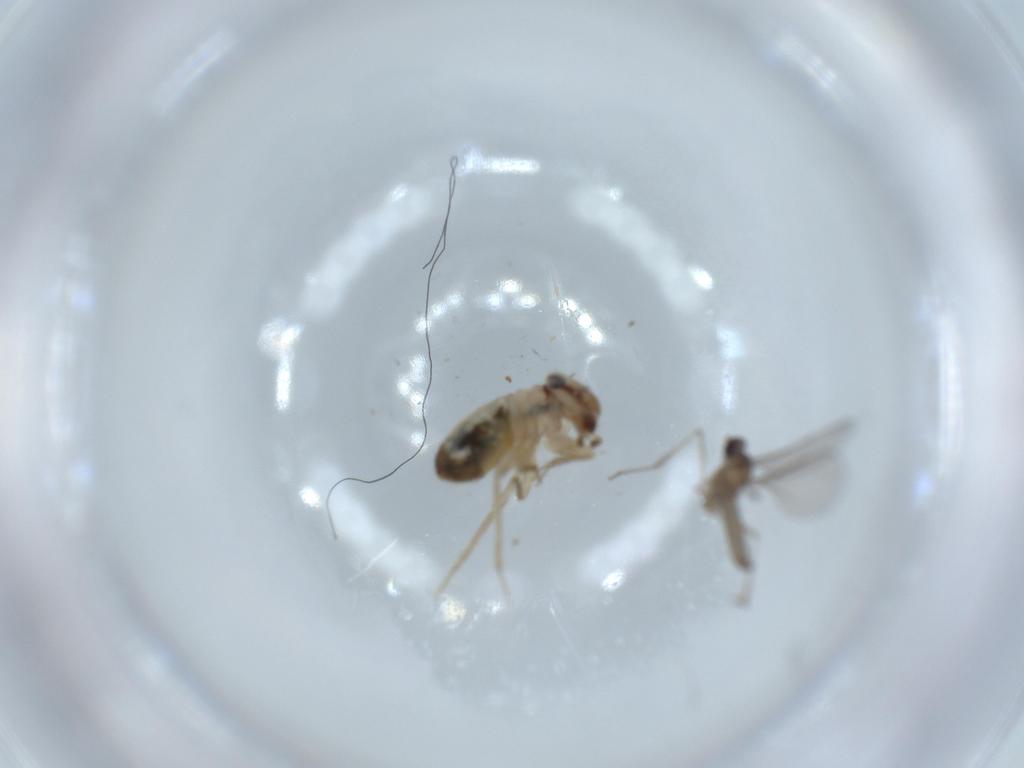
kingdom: Animalia
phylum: Arthropoda
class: Insecta
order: Diptera
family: Cecidomyiidae
